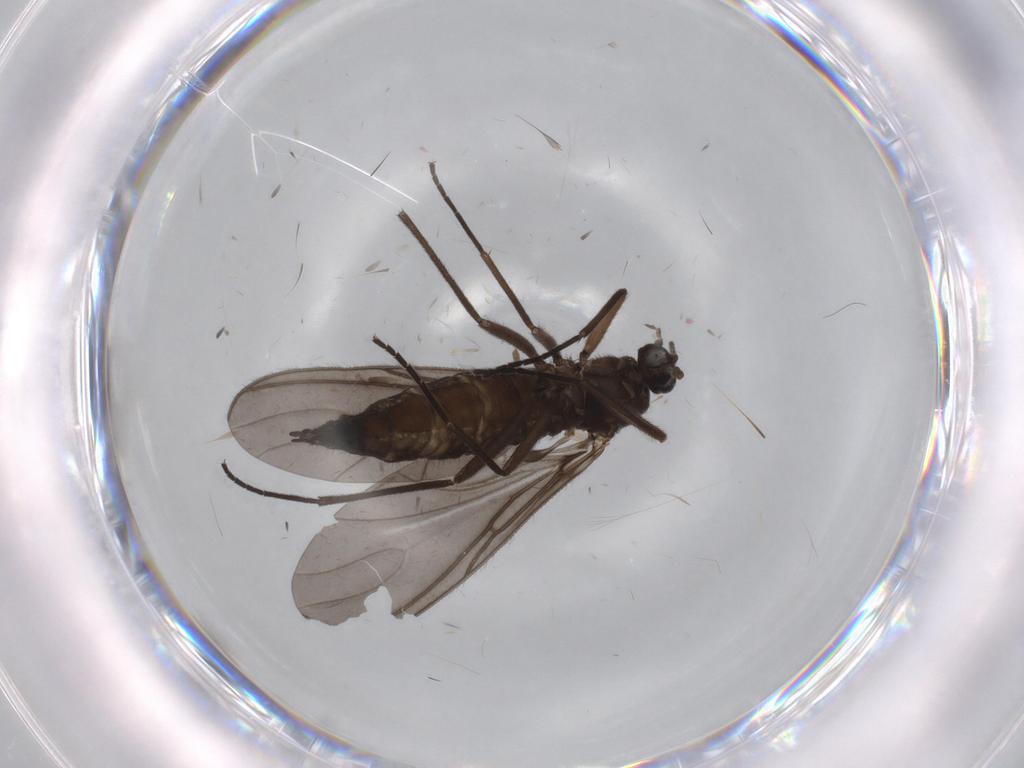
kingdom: Animalia
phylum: Arthropoda
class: Insecta
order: Diptera
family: Sciaridae
